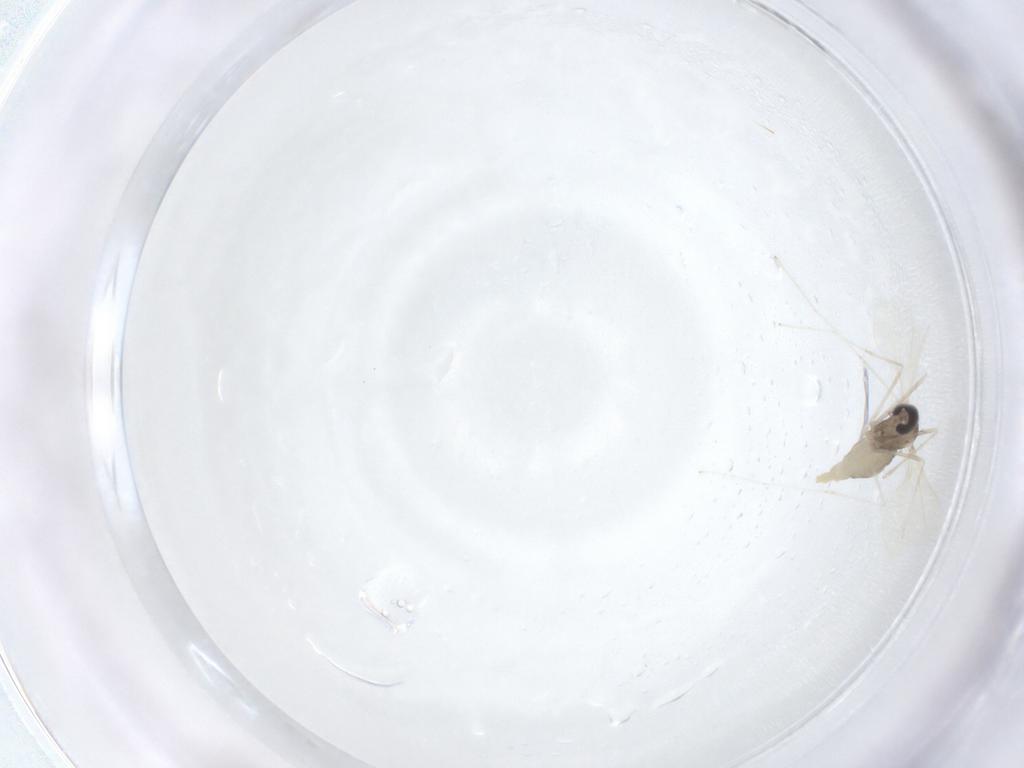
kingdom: Animalia
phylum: Arthropoda
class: Insecta
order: Diptera
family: Cecidomyiidae
